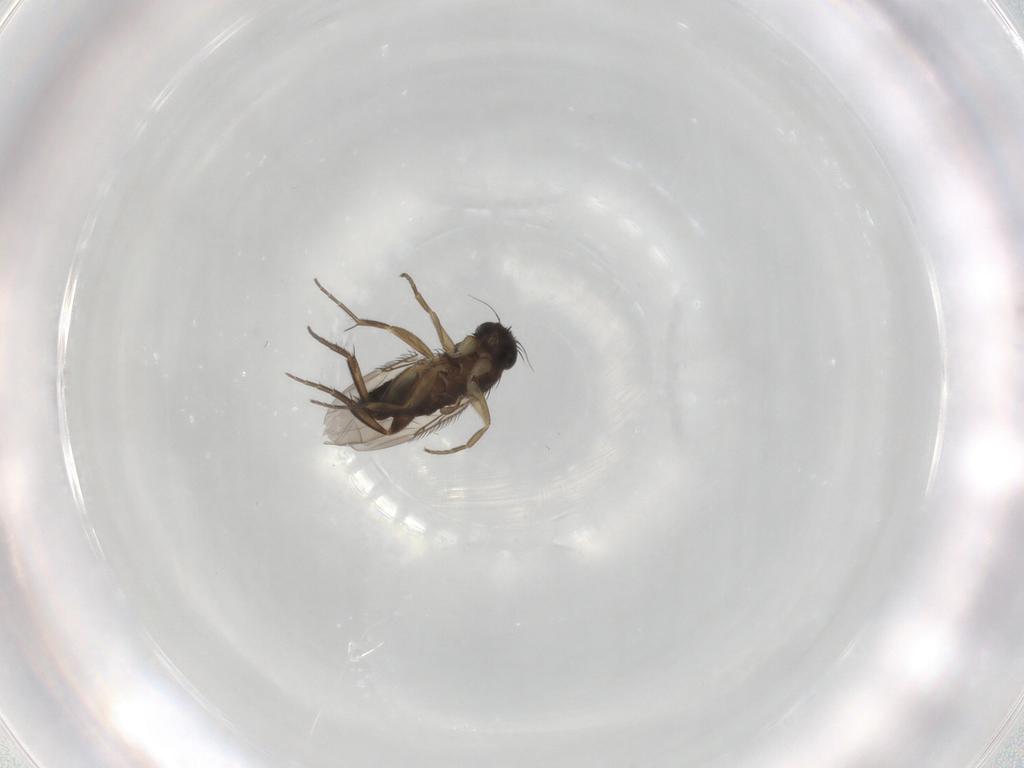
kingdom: Animalia
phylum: Arthropoda
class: Insecta
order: Diptera
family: Phoridae
